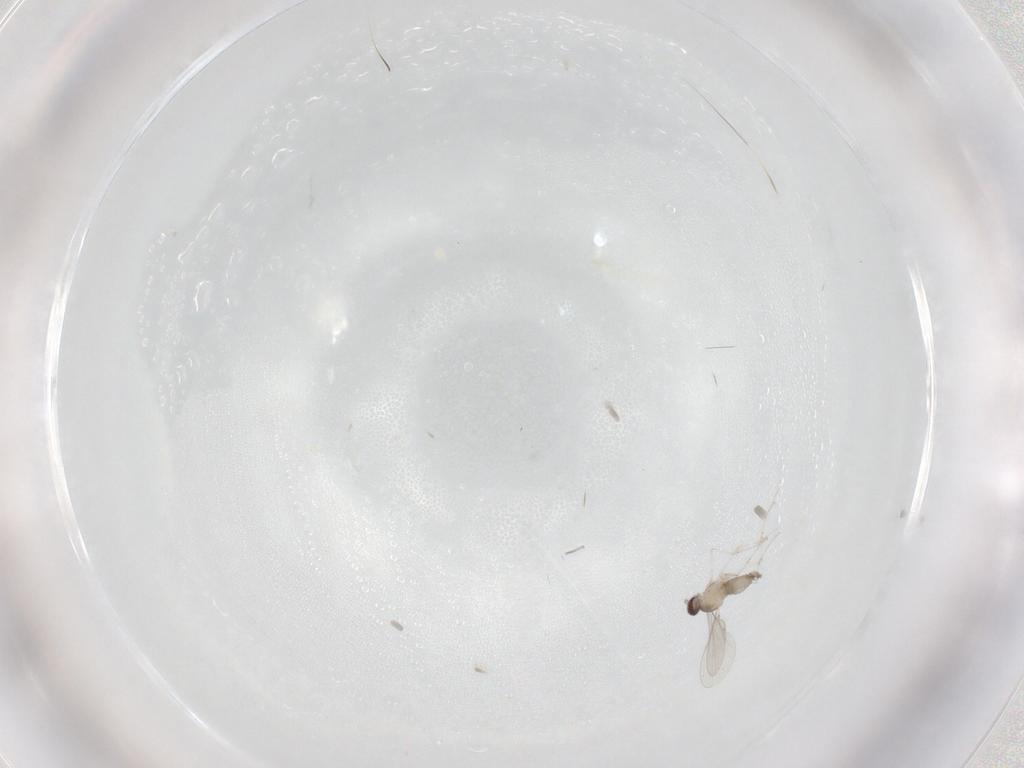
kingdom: Animalia
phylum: Arthropoda
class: Insecta
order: Diptera
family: Cecidomyiidae
